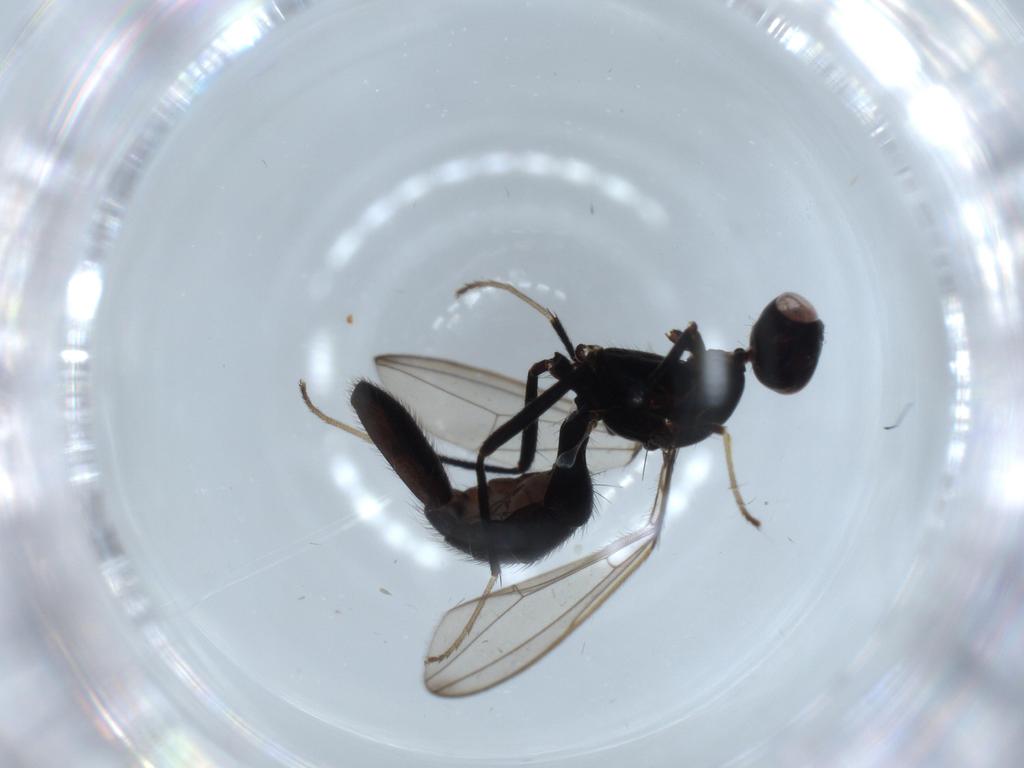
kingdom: Animalia
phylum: Arthropoda
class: Insecta
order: Diptera
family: Richardiidae
